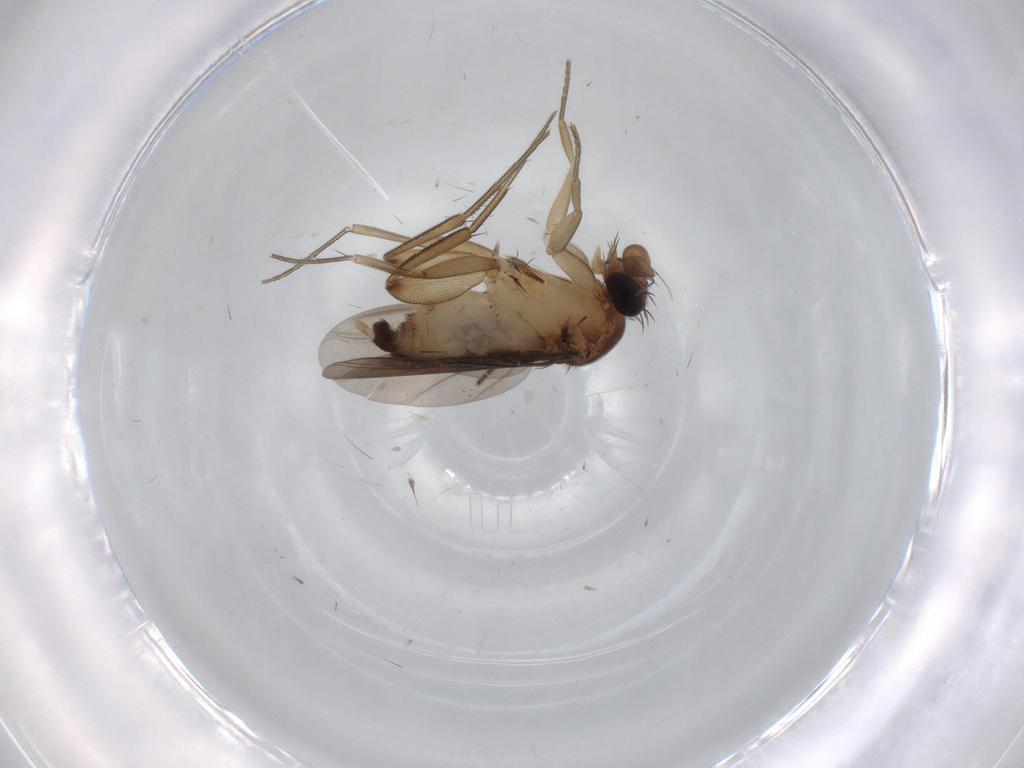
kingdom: Animalia
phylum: Arthropoda
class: Insecta
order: Diptera
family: Phoridae
